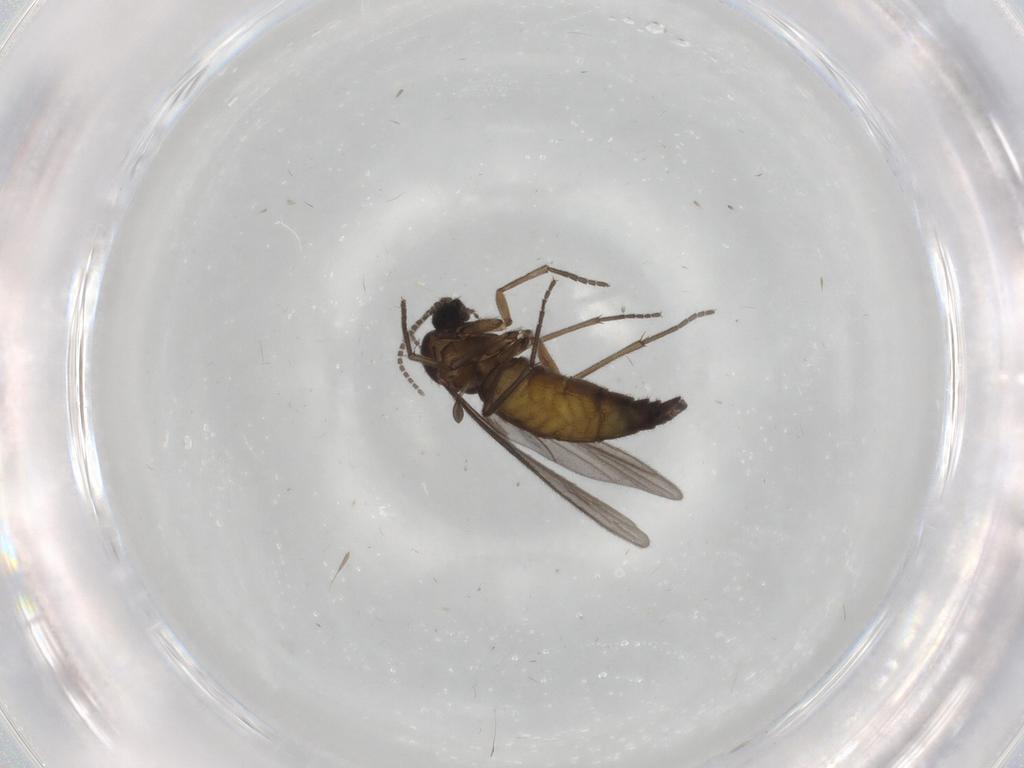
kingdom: Animalia
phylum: Arthropoda
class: Insecta
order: Diptera
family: Sciaridae
